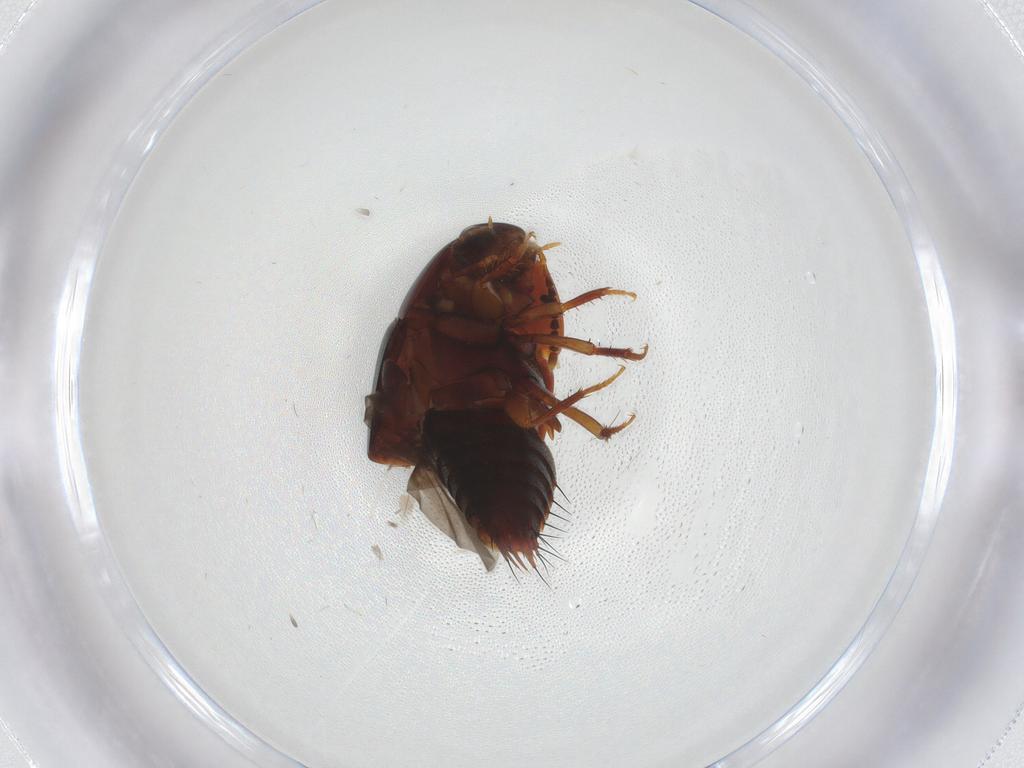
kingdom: Animalia
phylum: Arthropoda
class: Insecta
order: Coleoptera
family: Staphylinidae
